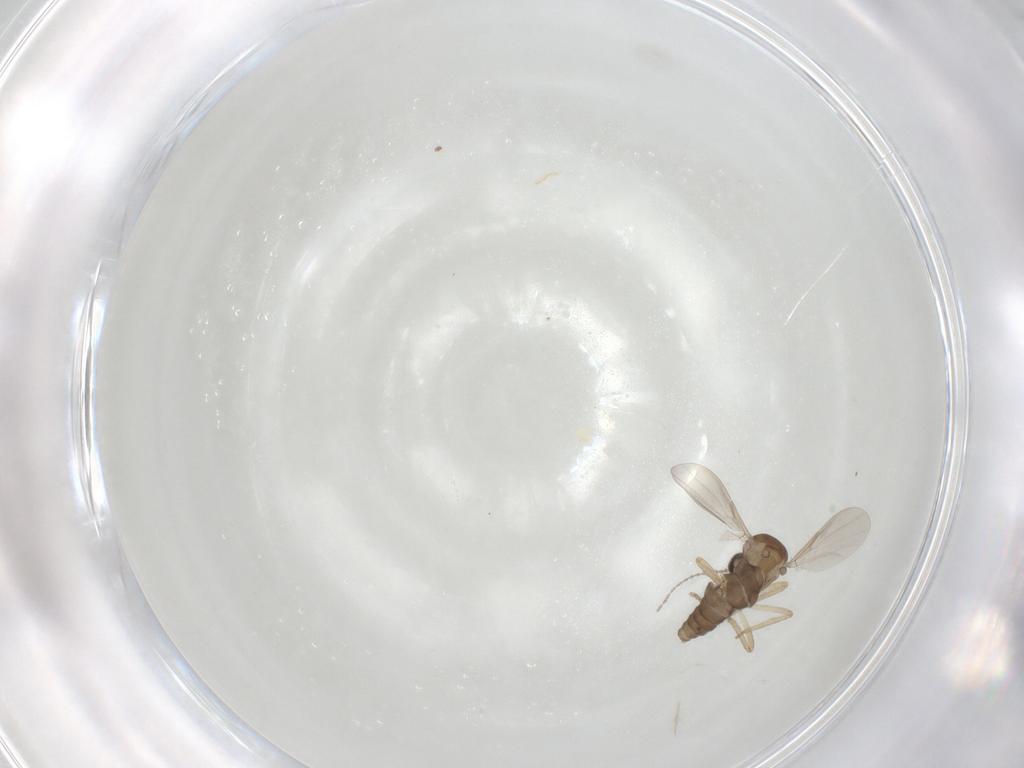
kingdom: Animalia
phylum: Arthropoda
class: Insecta
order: Diptera
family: Ceratopogonidae
